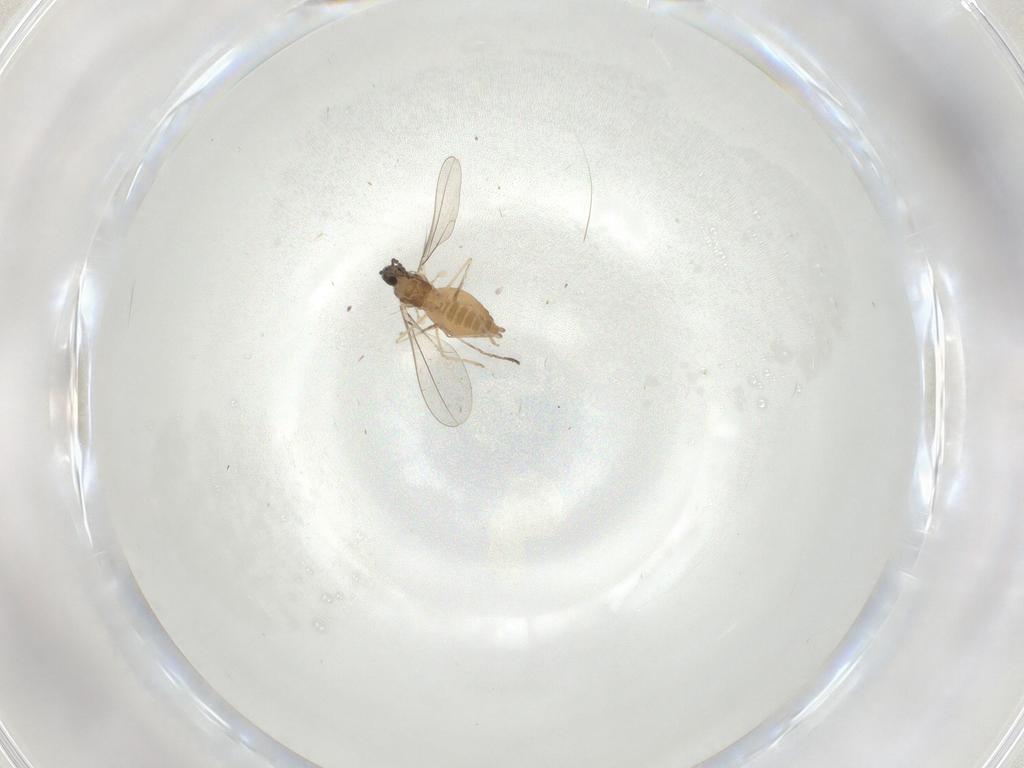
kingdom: Animalia
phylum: Arthropoda
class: Insecta
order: Diptera
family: Cecidomyiidae
